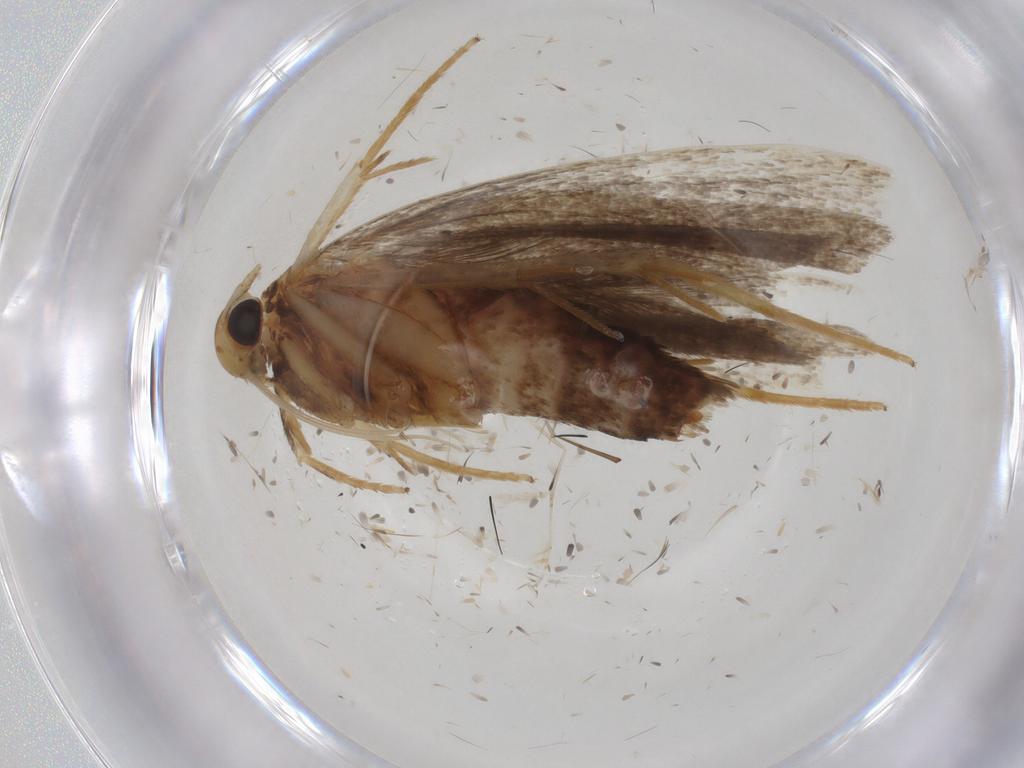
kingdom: Animalia
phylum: Arthropoda
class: Insecta
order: Lepidoptera
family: Lecithoceridae
